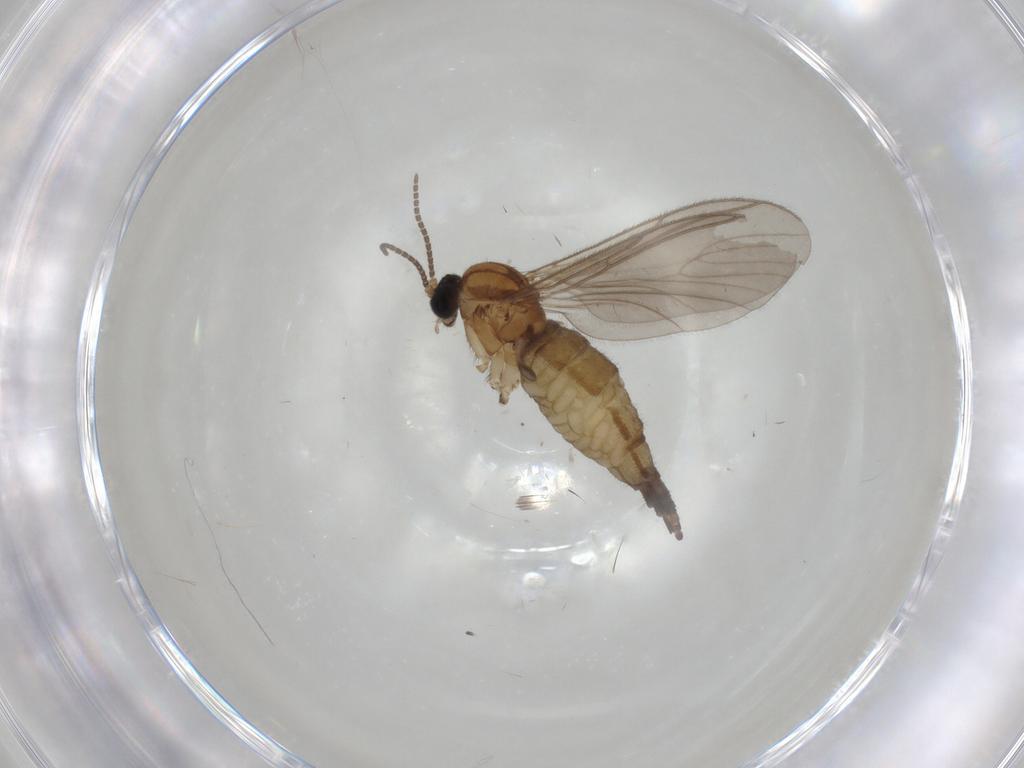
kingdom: Animalia
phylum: Arthropoda
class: Insecta
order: Diptera
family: Sciaridae
